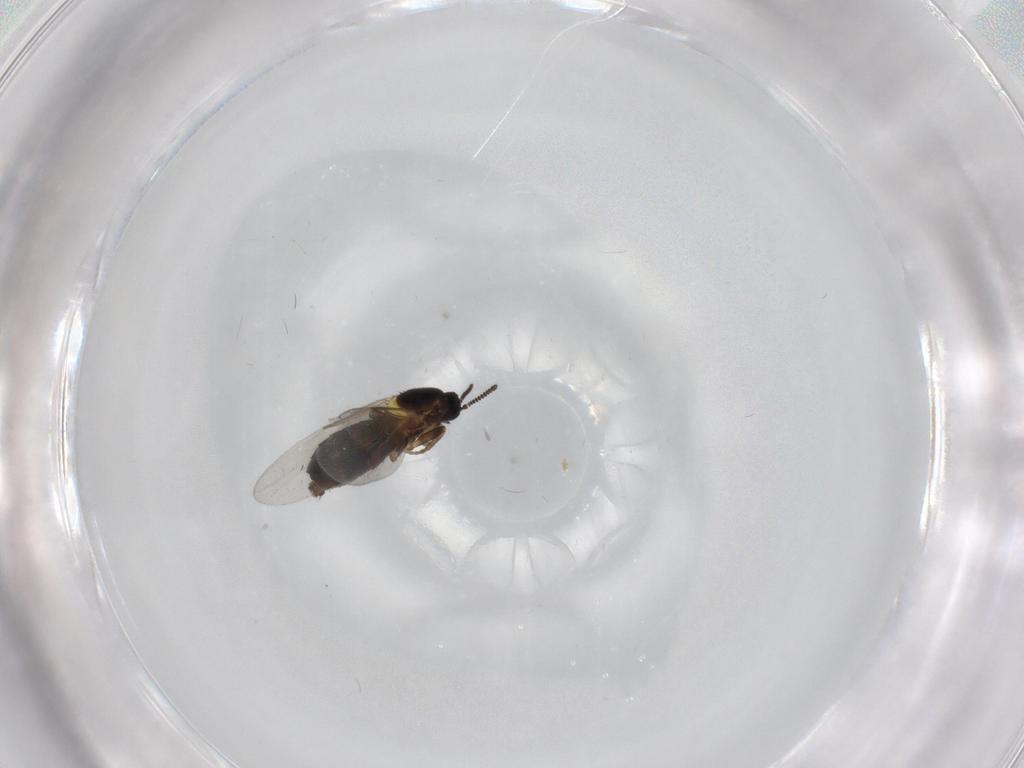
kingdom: Animalia
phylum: Arthropoda
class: Insecta
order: Diptera
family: Scatopsidae
